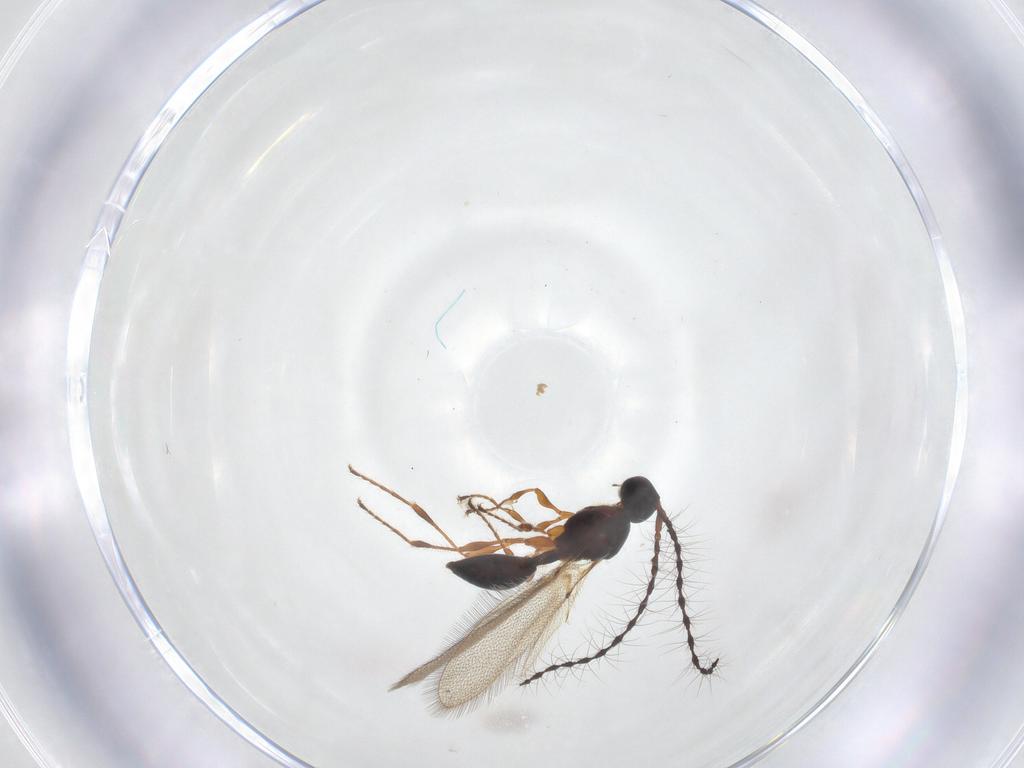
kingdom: Animalia
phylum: Arthropoda
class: Insecta
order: Hymenoptera
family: Diapriidae
